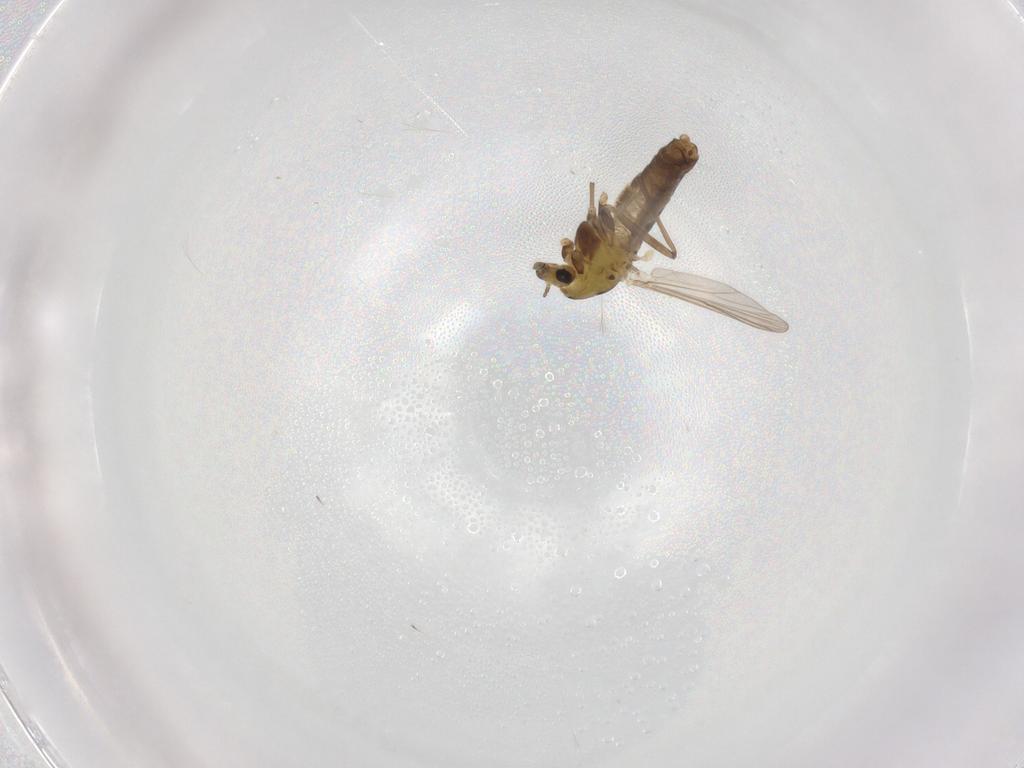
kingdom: Animalia
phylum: Arthropoda
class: Insecta
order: Diptera
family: Chironomidae
